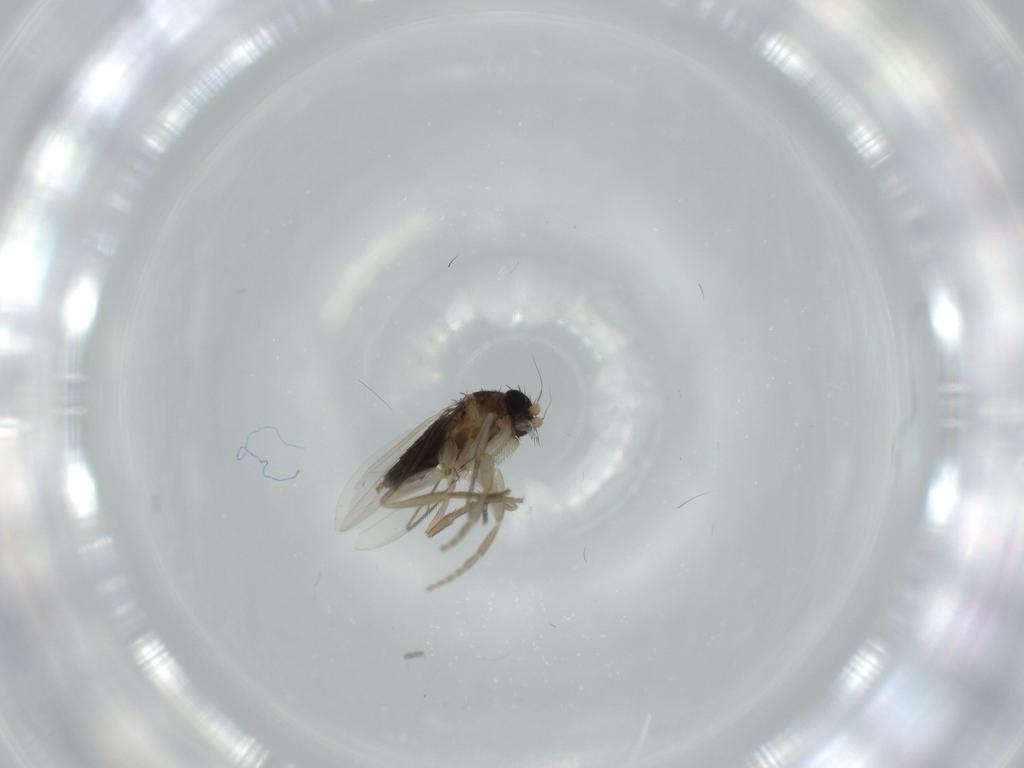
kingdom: Animalia
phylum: Arthropoda
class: Insecta
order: Diptera
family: Phoridae
